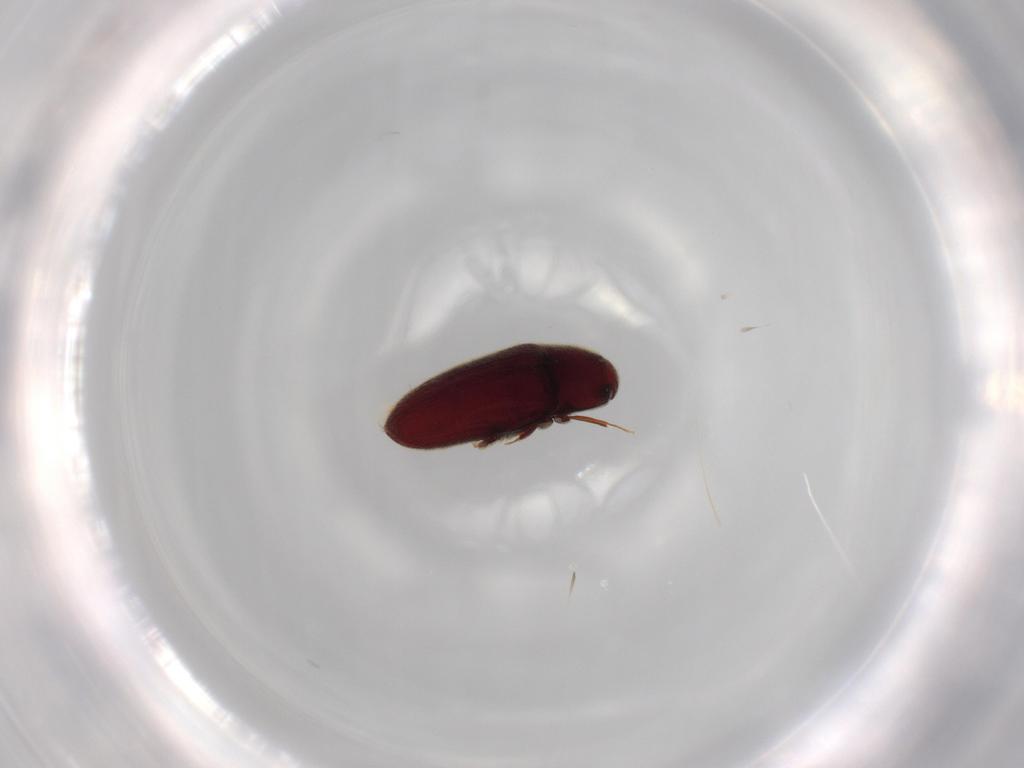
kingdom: Animalia
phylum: Arthropoda
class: Insecta
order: Coleoptera
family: Throscidae
